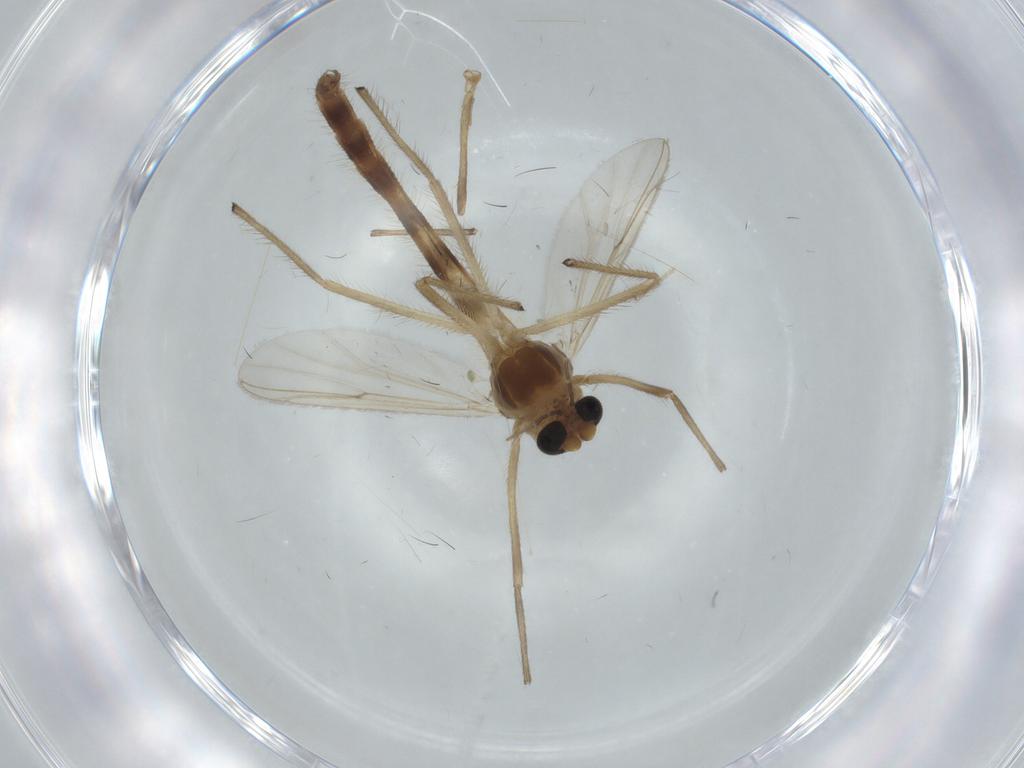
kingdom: Animalia
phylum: Arthropoda
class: Insecta
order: Diptera
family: Chironomidae
